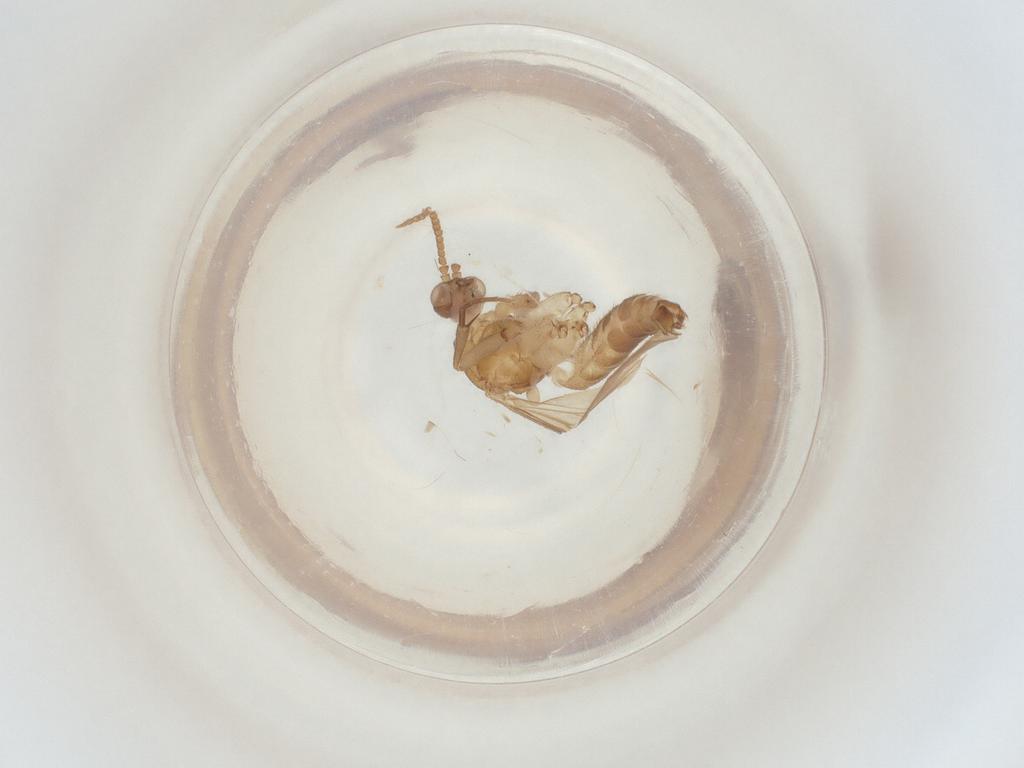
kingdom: Animalia
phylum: Arthropoda
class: Insecta
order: Diptera
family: Mycetophilidae
